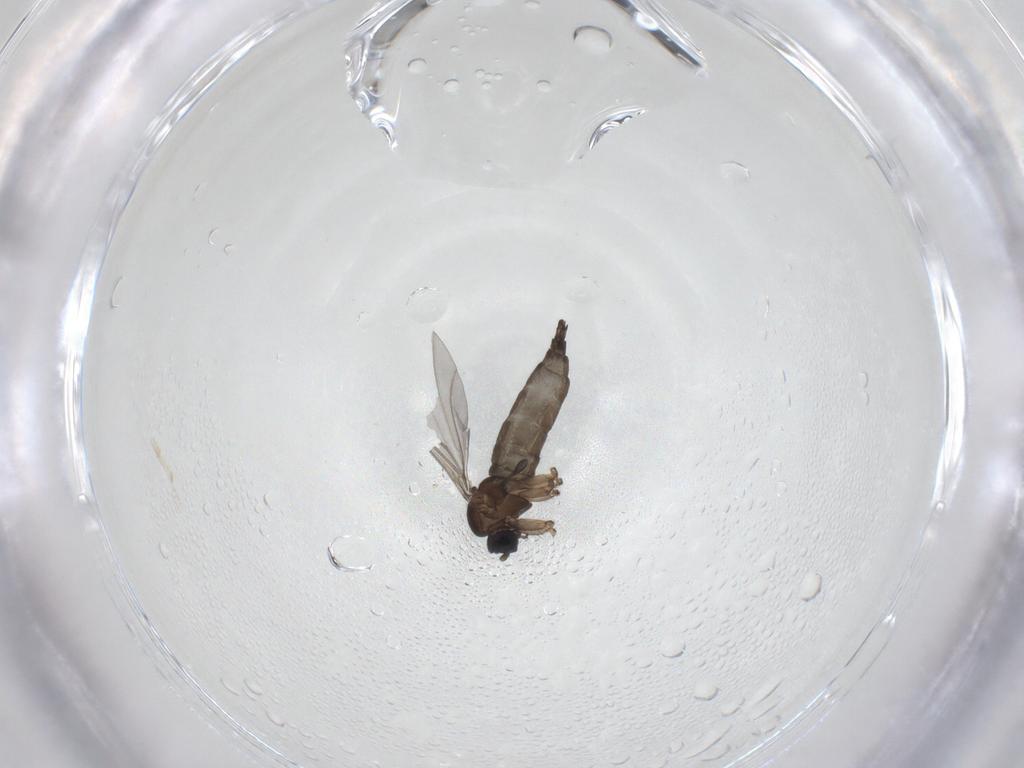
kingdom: Animalia
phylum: Arthropoda
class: Insecta
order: Diptera
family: Sciaridae
